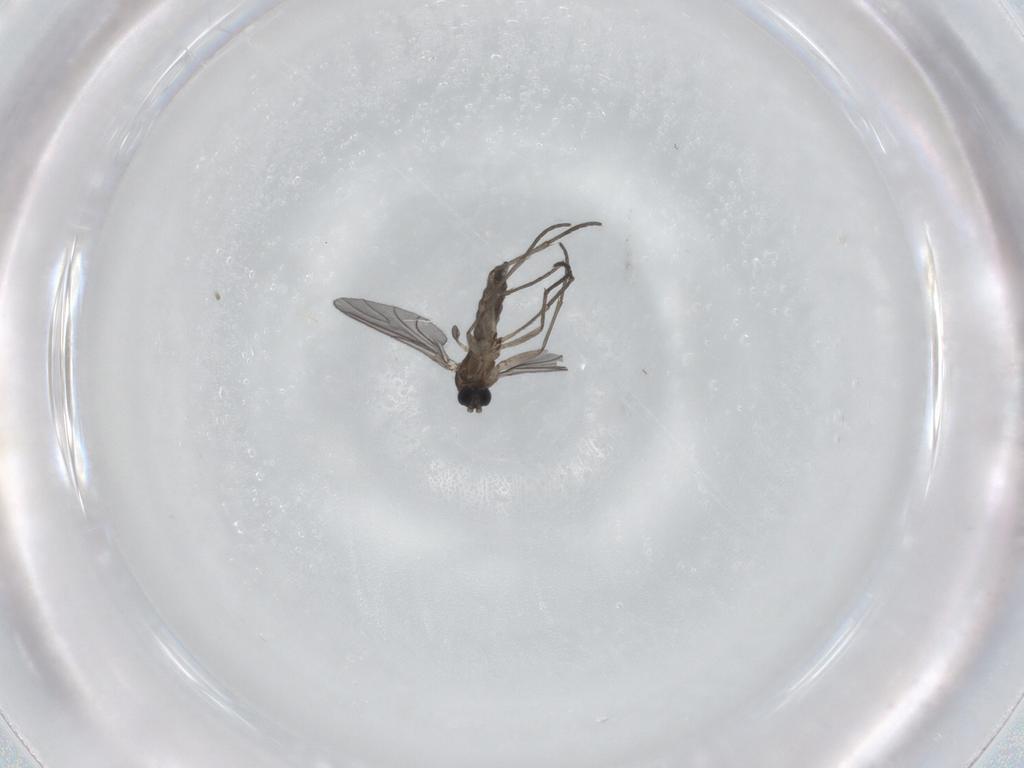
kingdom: Animalia
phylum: Arthropoda
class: Insecta
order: Diptera
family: Sciaridae
